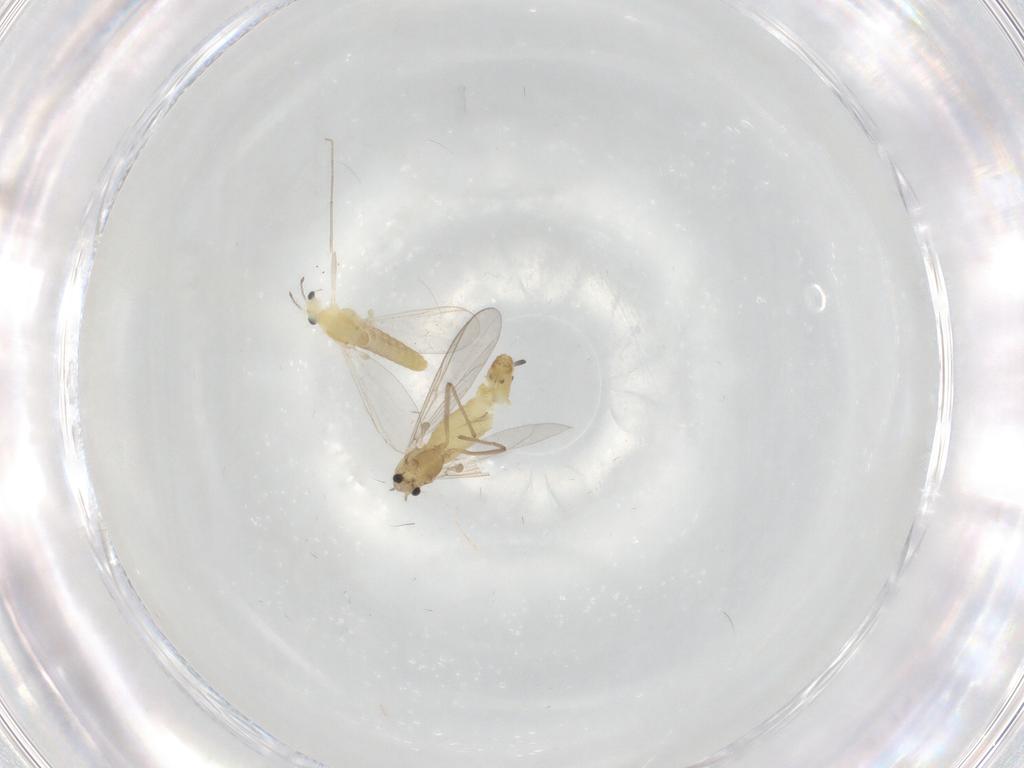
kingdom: Animalia
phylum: Arthropoda
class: Insecta
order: Diptera
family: Chironomidae
